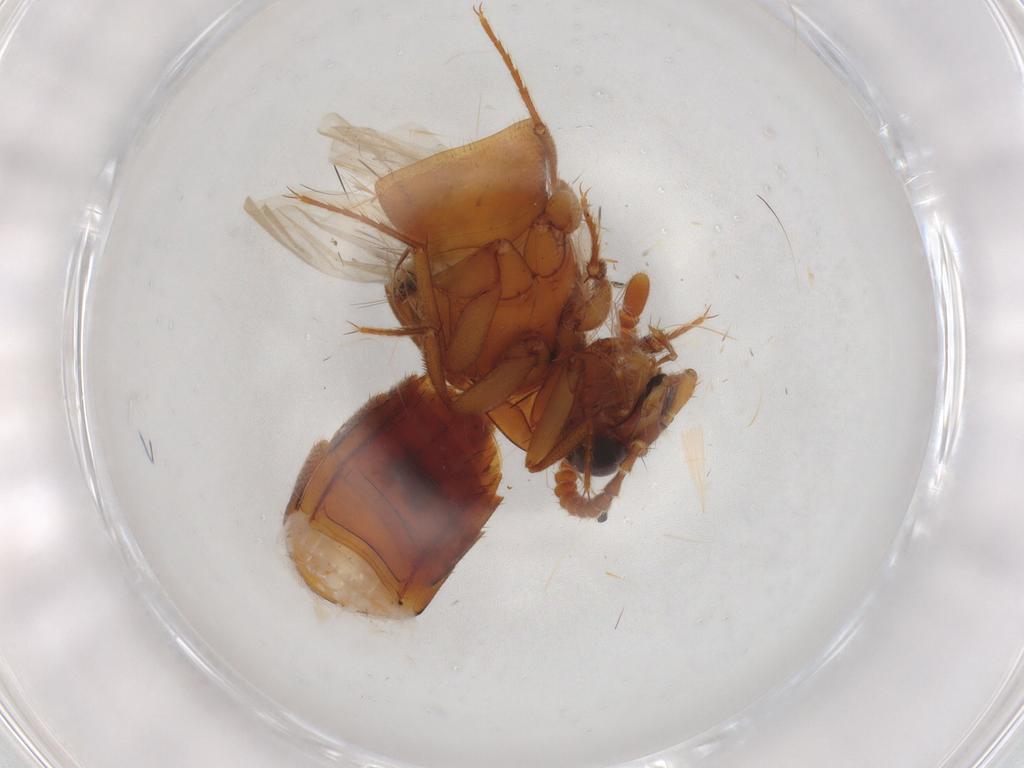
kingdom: Animalia
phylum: Arthropoda
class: Insecta
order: Coleoptera
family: Staphylinidae
